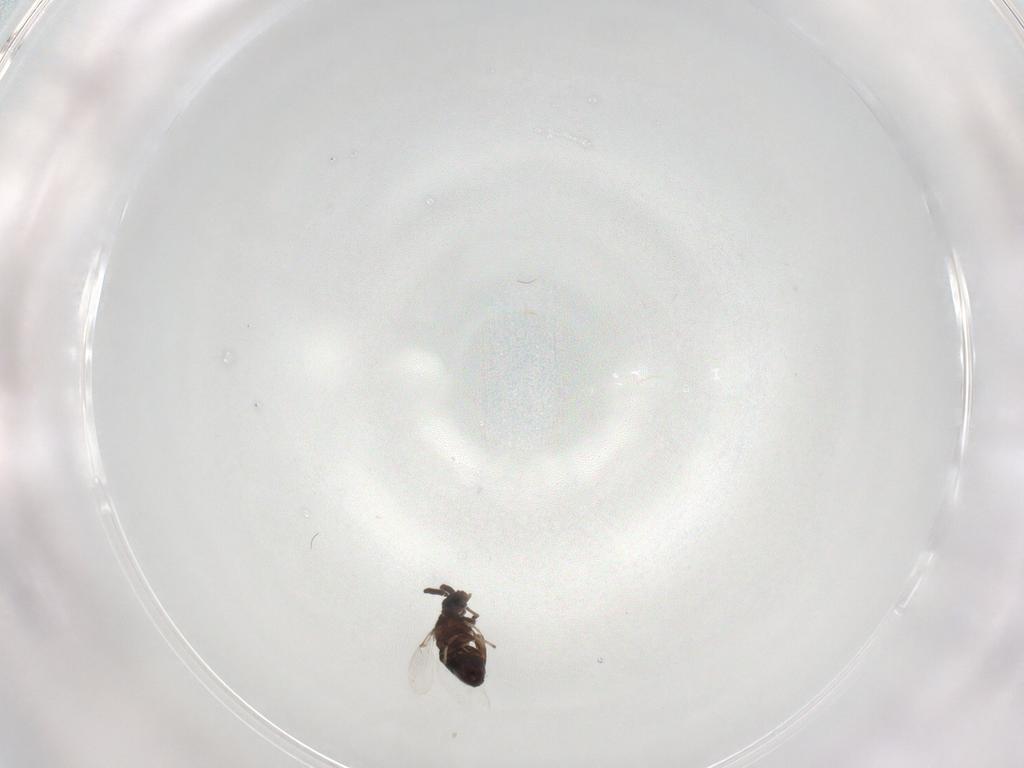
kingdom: Animalia
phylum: Arthropoda
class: Insecta
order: Diptera
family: Scatopsidae
